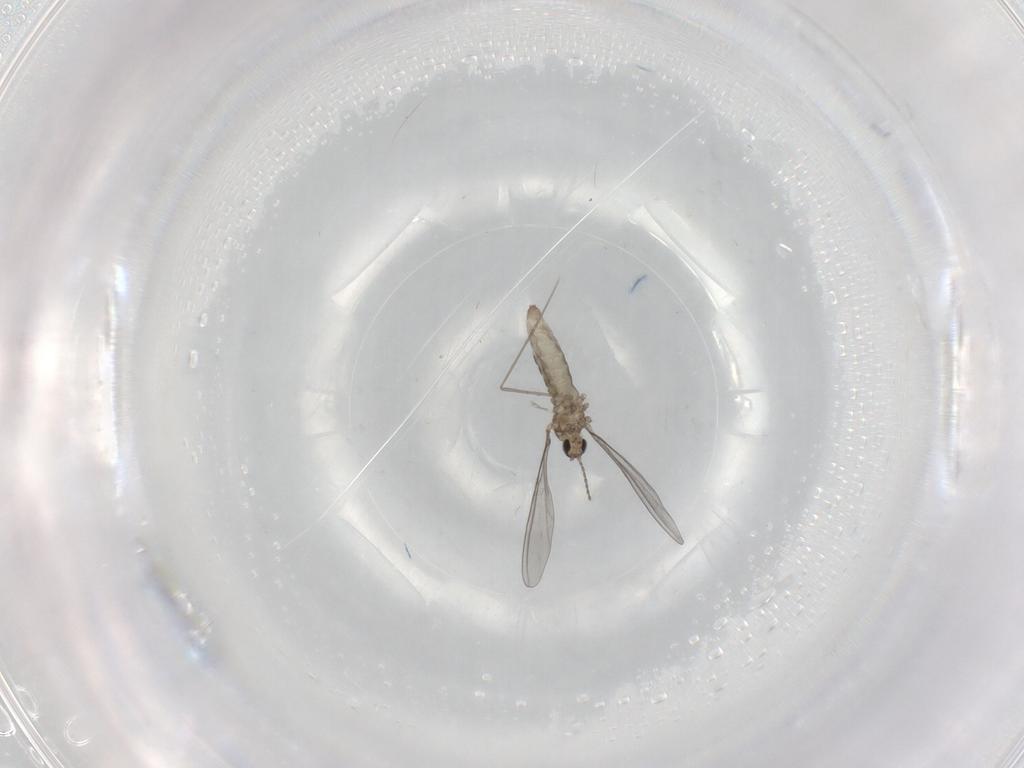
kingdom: Animalia
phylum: Arthropoda
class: Insecta
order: Diptera
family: Cecidomyiidae
